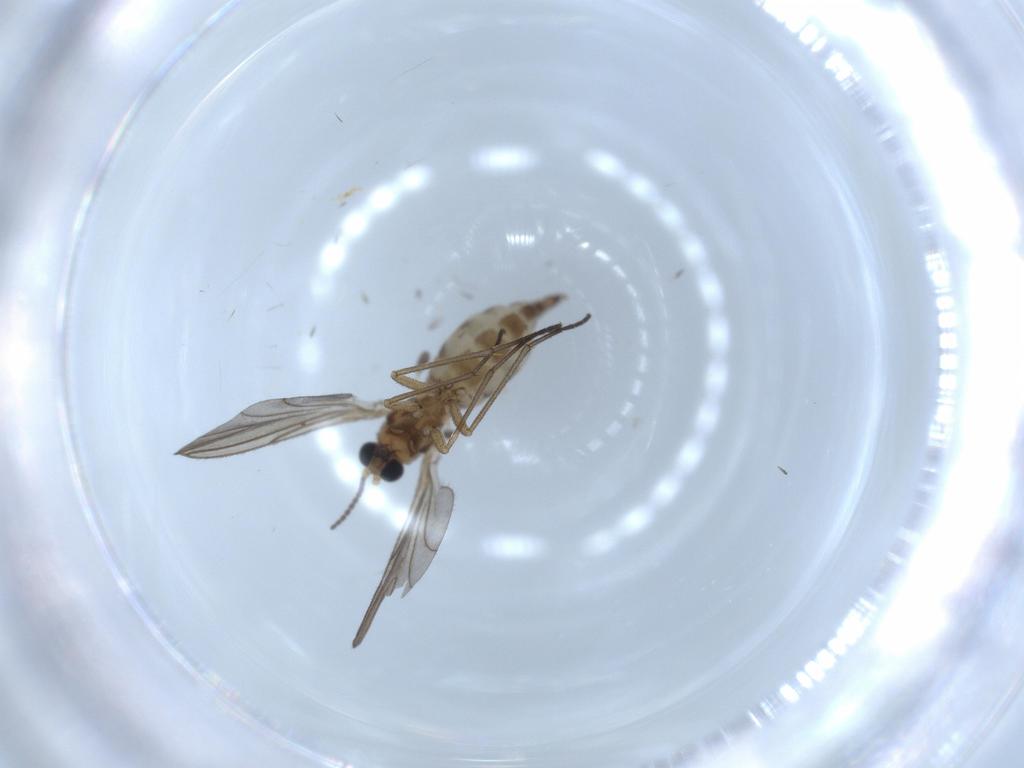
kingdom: Animalia
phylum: Arthropoda
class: Insecta
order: Diptera
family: Sciaridae
